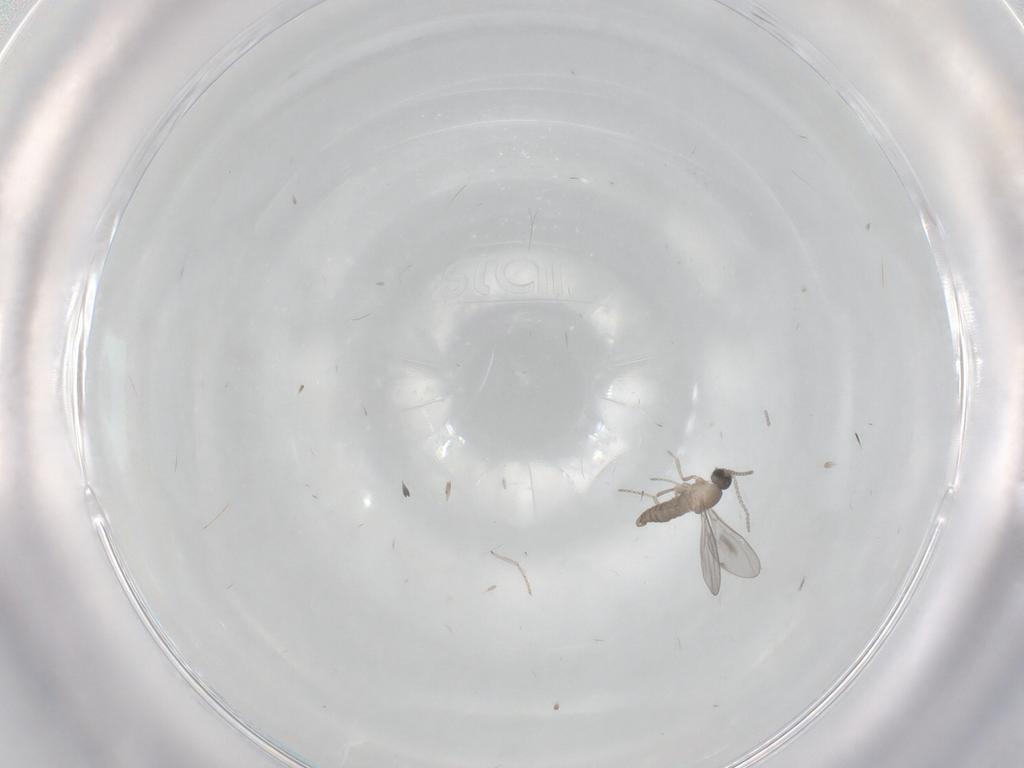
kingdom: Animalia
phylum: Arthropoda
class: Insecta
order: Diptera
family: Cecidomyiidae
